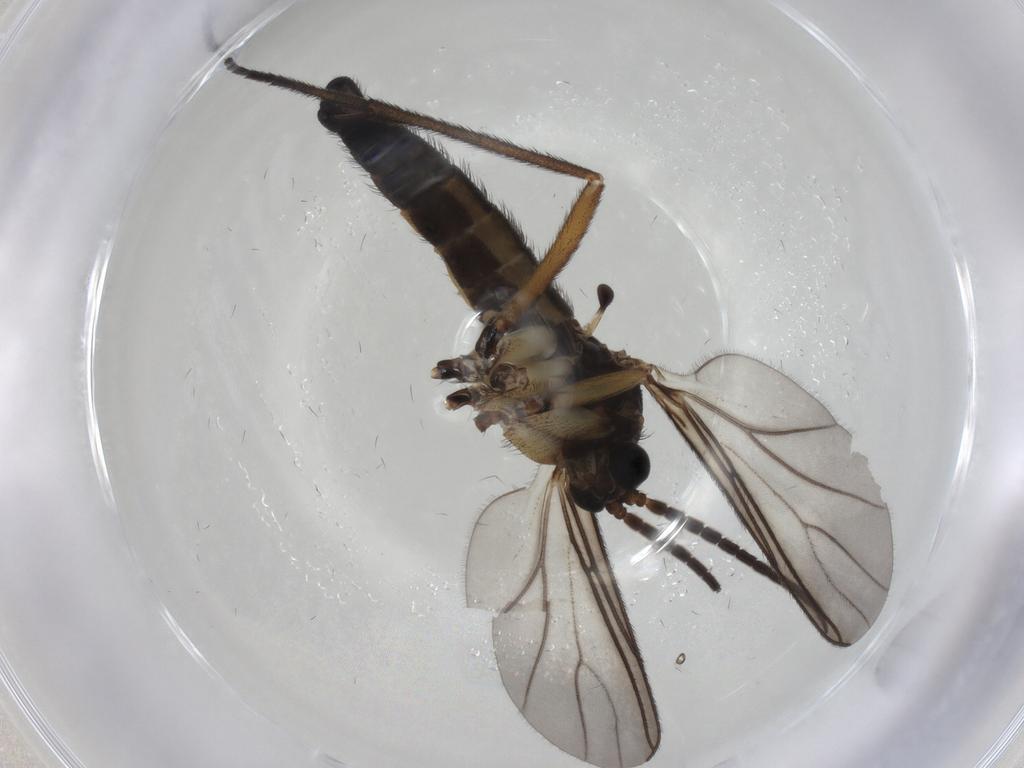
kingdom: Animalia
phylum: Arthropoda
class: Insecta
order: Diptera
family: Sciaridae
